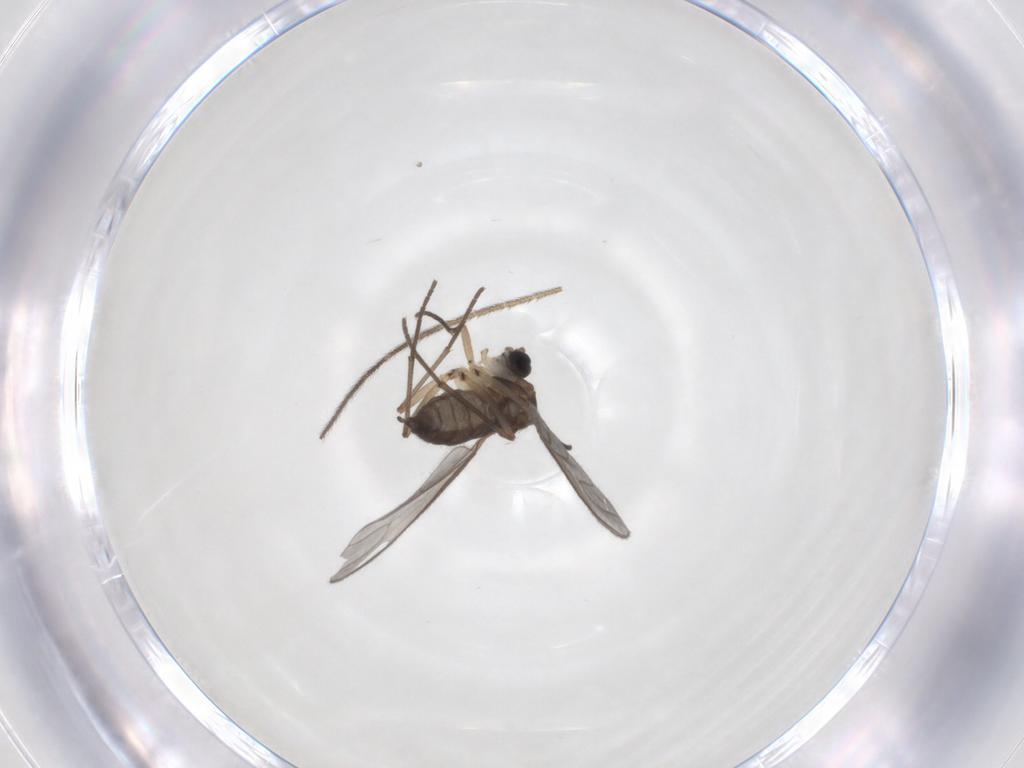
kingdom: Animalia
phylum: Arthropoda
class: Insecta
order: Diptera
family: Sciaridae
